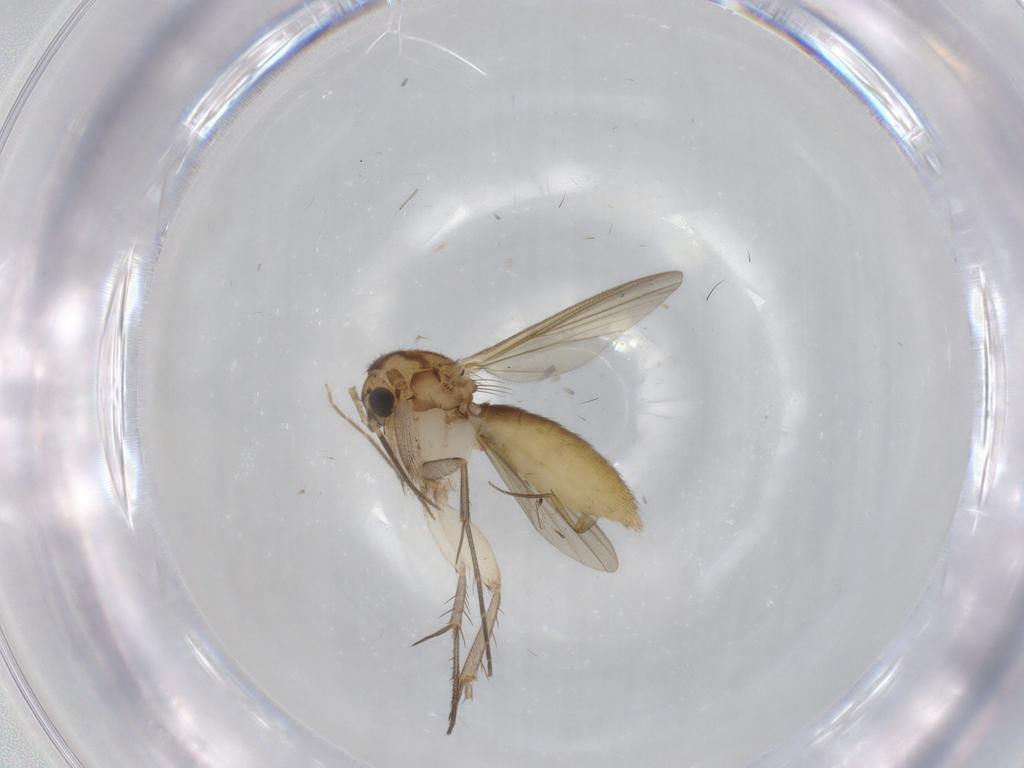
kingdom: Animalia
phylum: Arthropoda
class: Insecta
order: Diptera
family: Mycetophilidae
